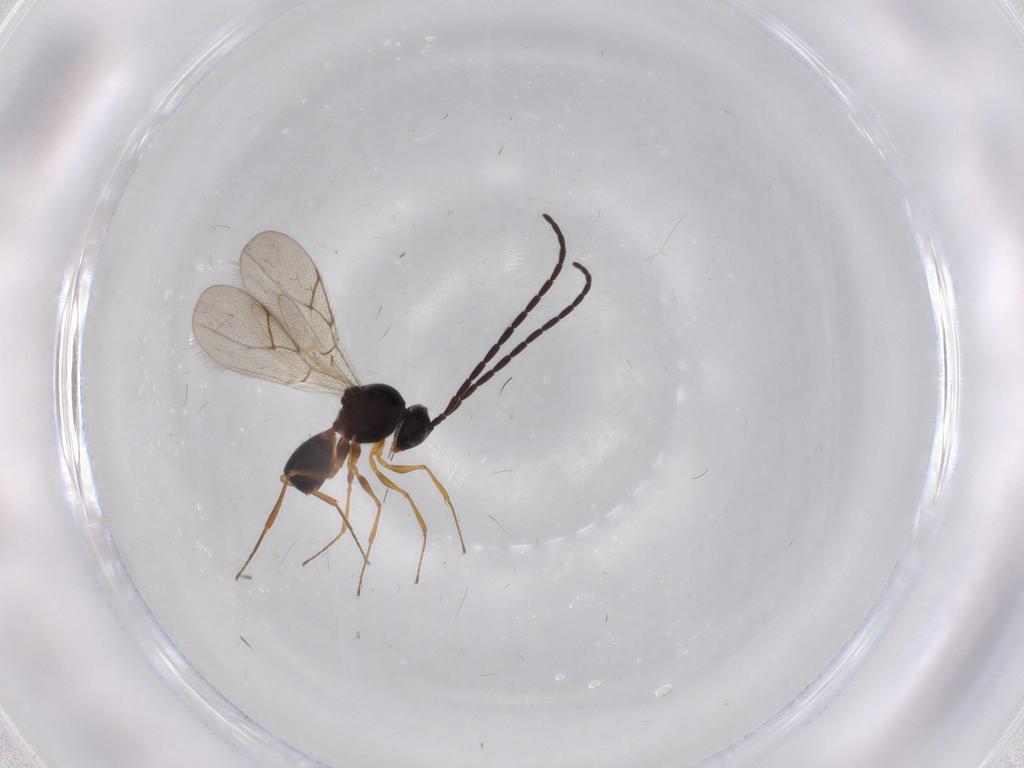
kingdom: Animalia
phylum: Arthropoda
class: Insecta
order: Hymenoptera
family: Figitidae
